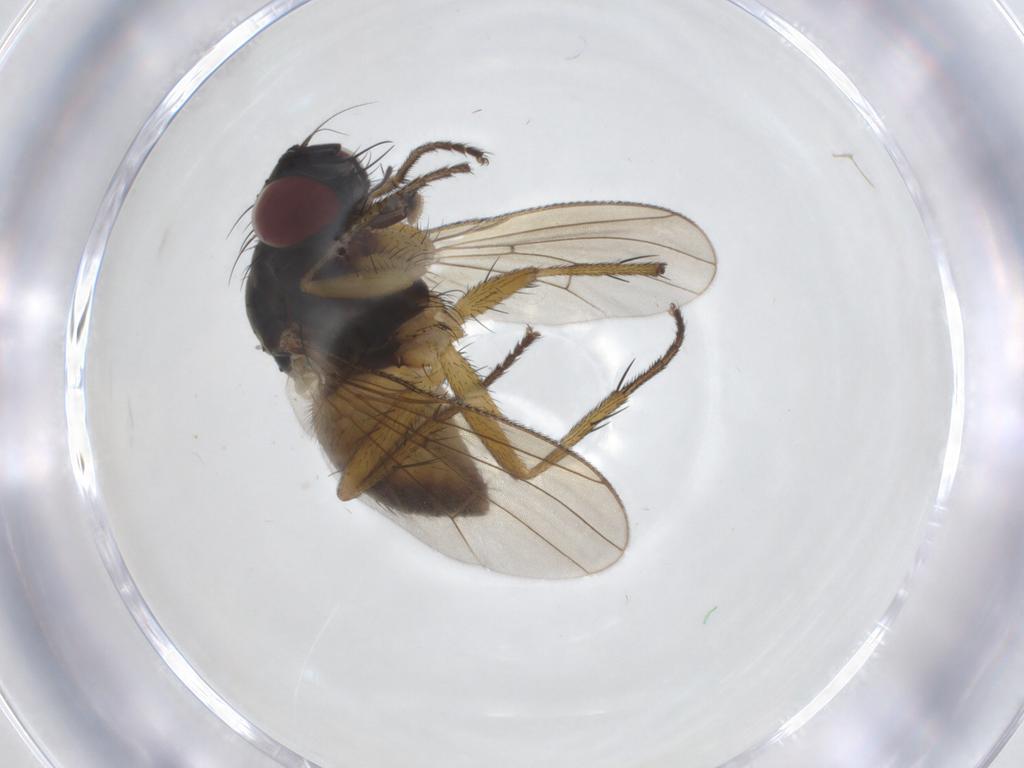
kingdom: Animalia
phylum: Arthropoda
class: Insecta
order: Diptera
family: Muscidae
